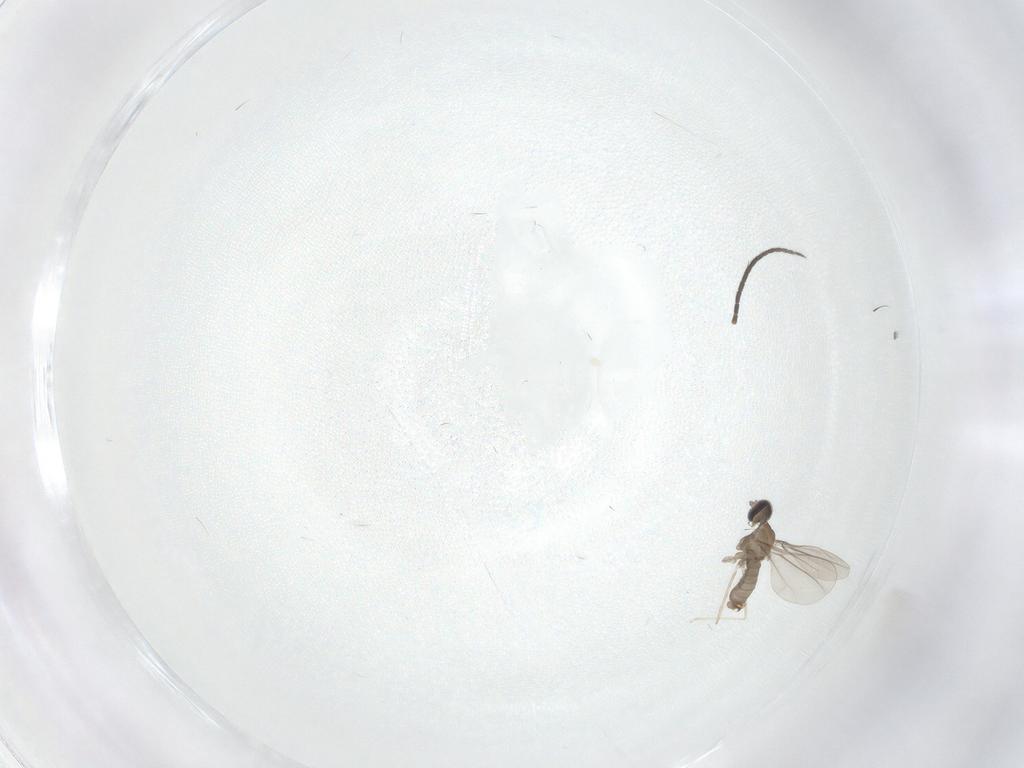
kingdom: Animalia
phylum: Arthropoda
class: Insecta
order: Diptera
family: Cecidomyiidae
